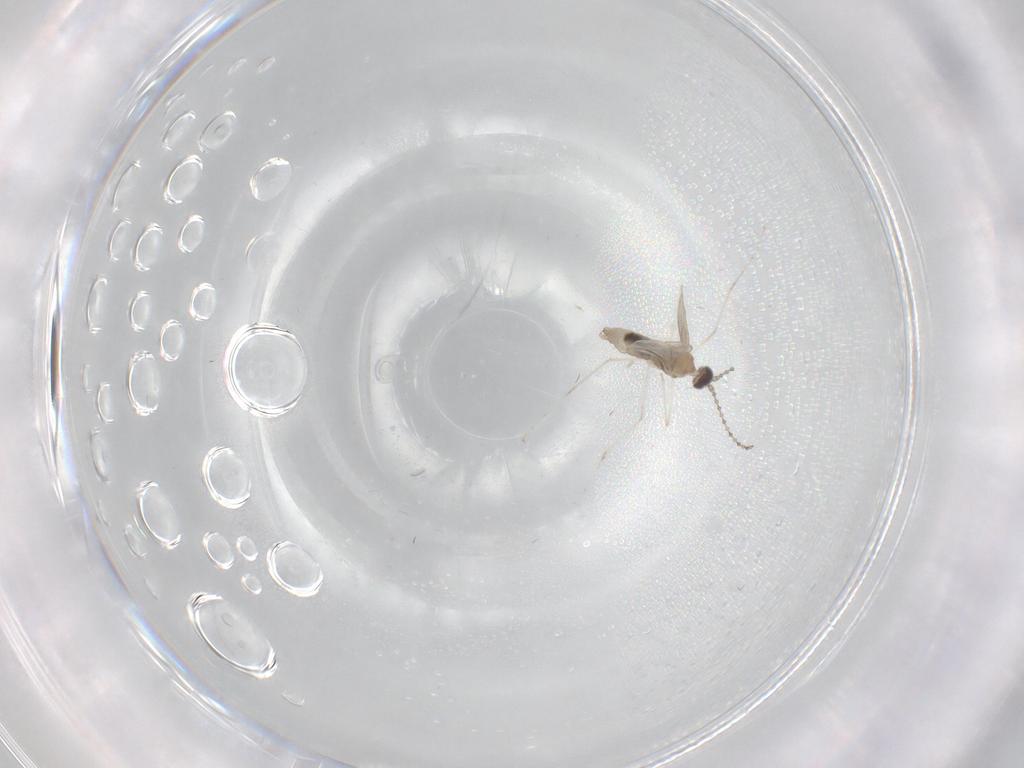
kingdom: Animalia
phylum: Arthropoda
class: Insecta
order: Diptera
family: Cecidomyiidae
